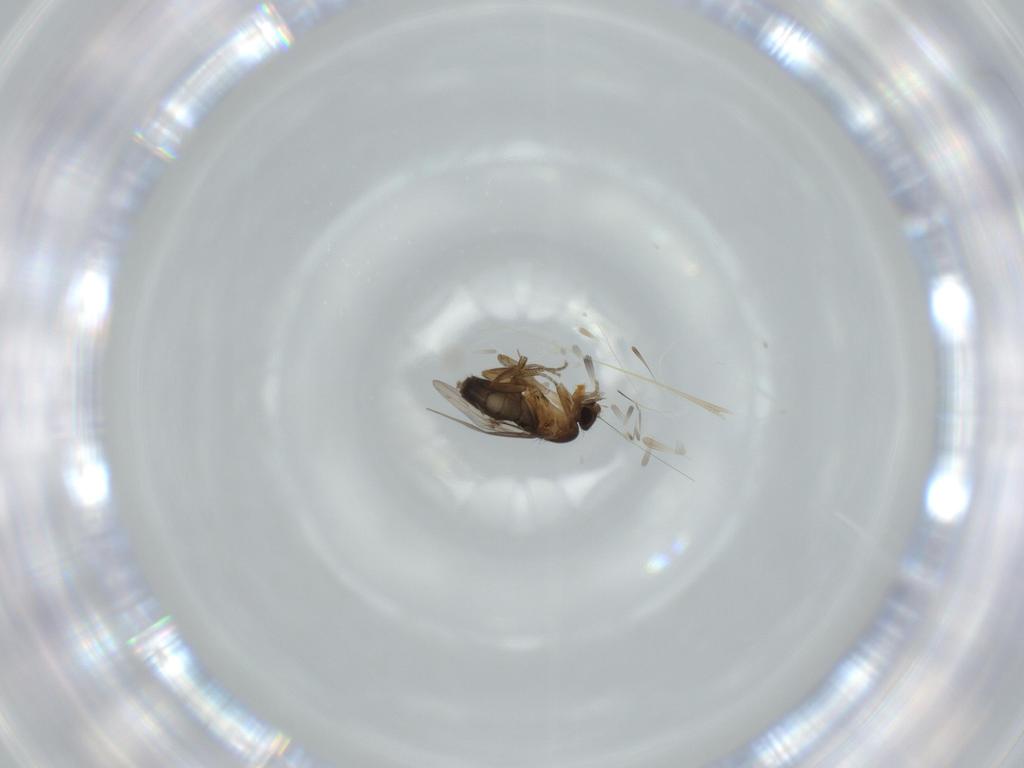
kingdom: Animalia
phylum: Arthropoda
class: Insecta
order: Diptera
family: Phoridae
